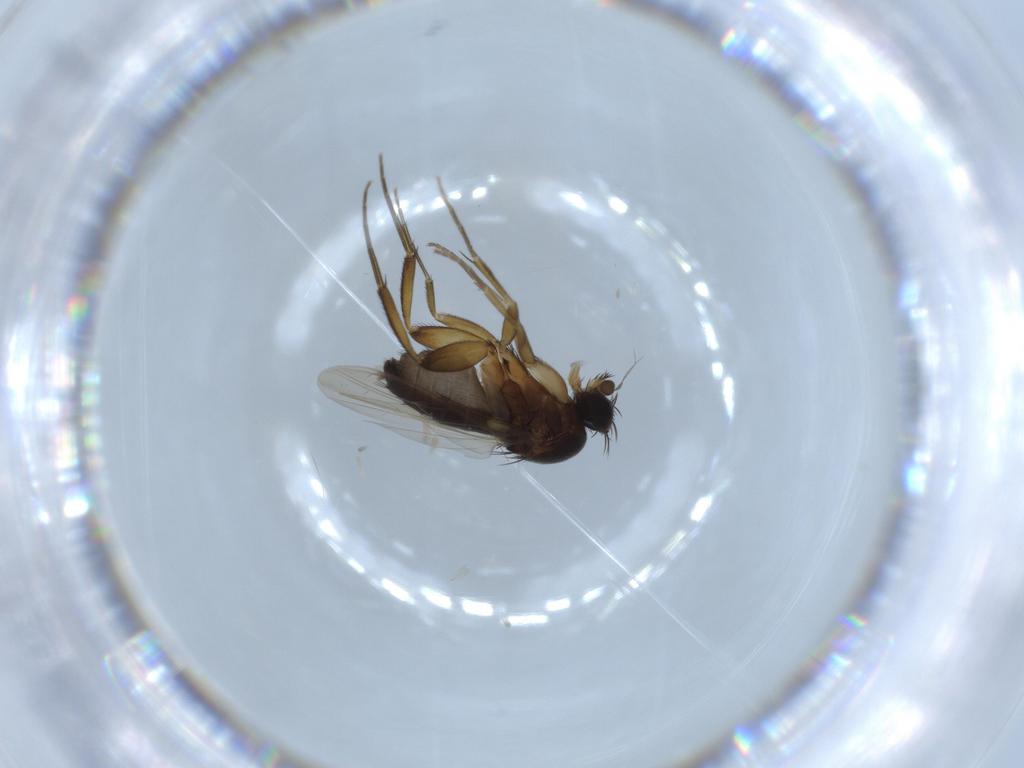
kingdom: Animalia
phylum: Arthropoda
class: Insecta
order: Diptera
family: Phoridae
